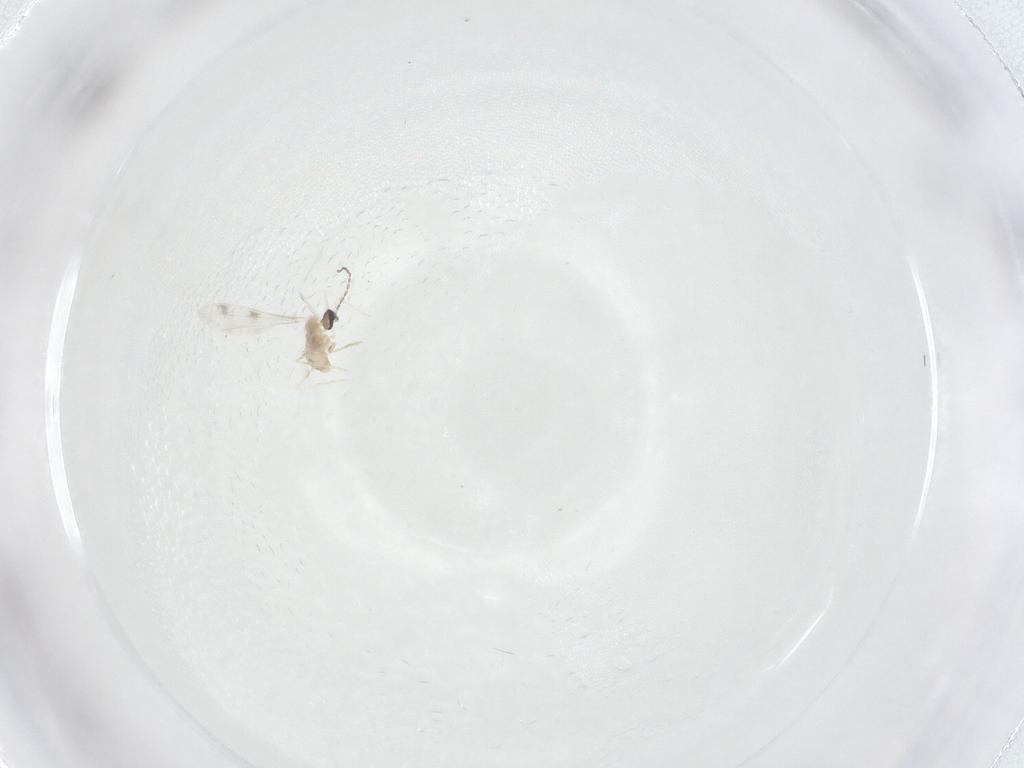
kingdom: Animalia
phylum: Arthropoda
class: Insecta
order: Diptera
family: Cecidomyiidae
